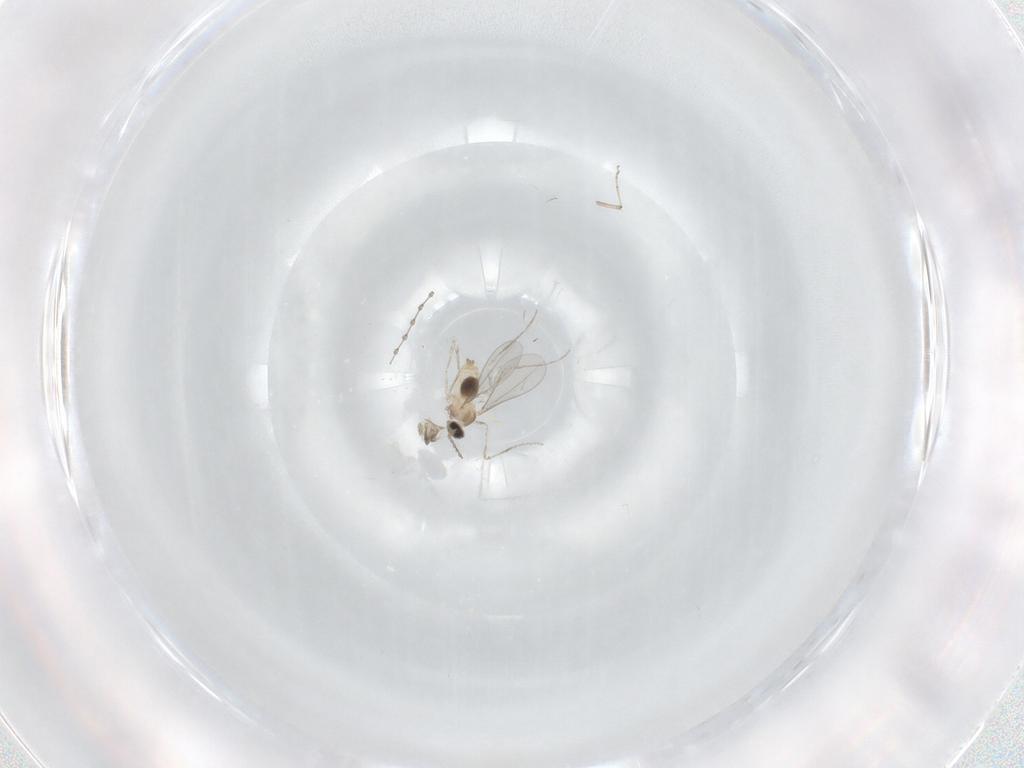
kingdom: Animalia
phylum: Arthropoda
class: Insecta
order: Diptera
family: Cecidomyiidae
